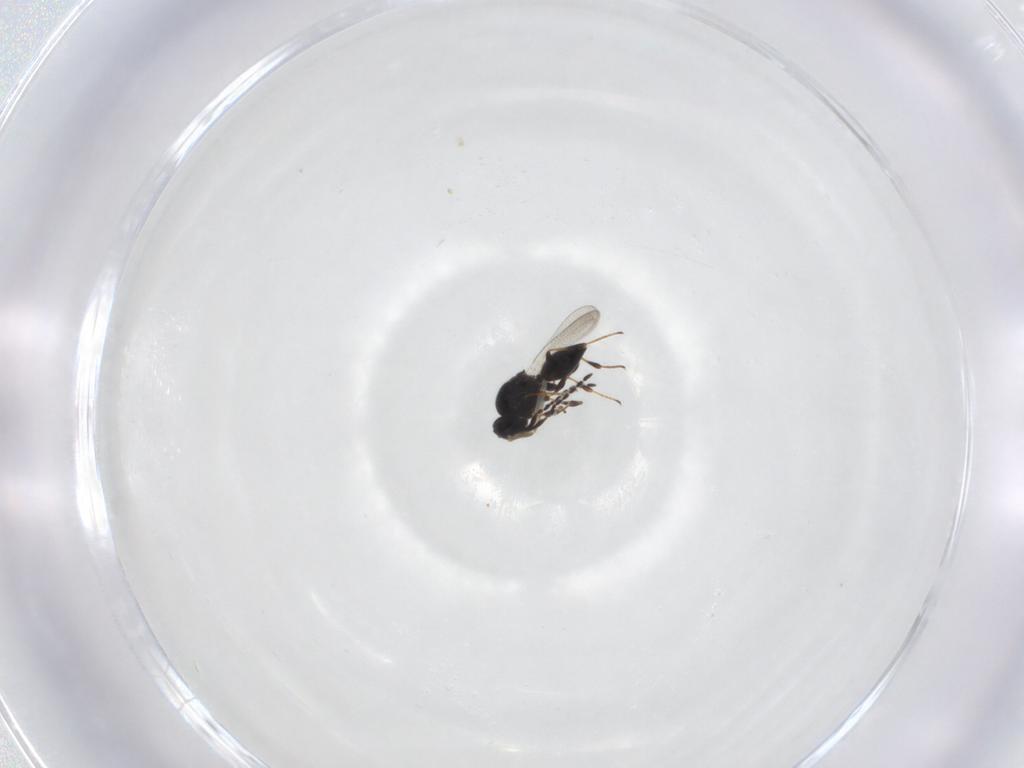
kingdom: Animalia
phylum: Arthropoda
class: Insecta
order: Hymenoptera
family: Platygastridae
